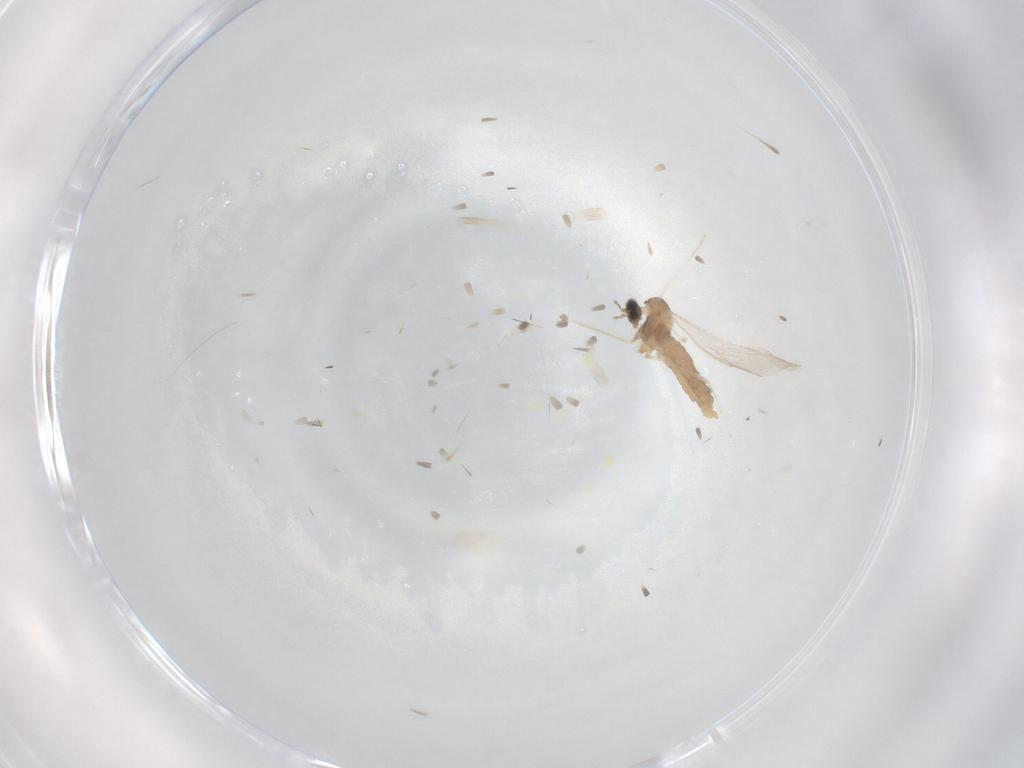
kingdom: Animalia
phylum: Arthropoda
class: Insecta
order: Diptera
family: Cecidomyiidae
